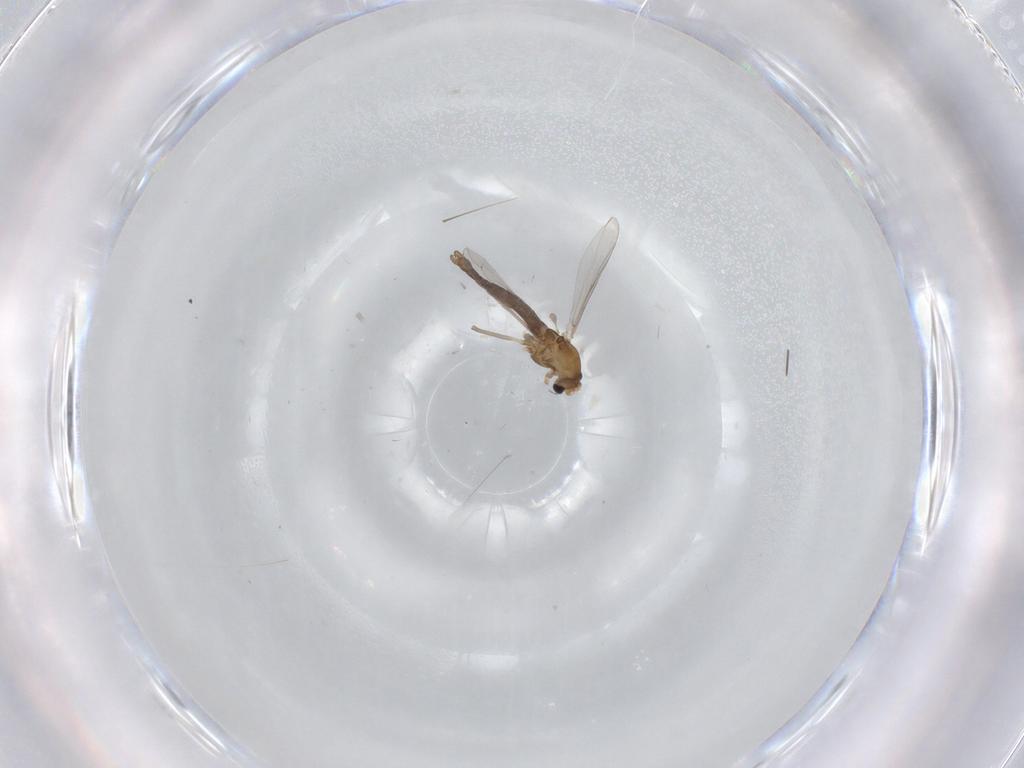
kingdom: Animalia
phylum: Arthropoda
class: Insecta
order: Diptera
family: Chironomidae
